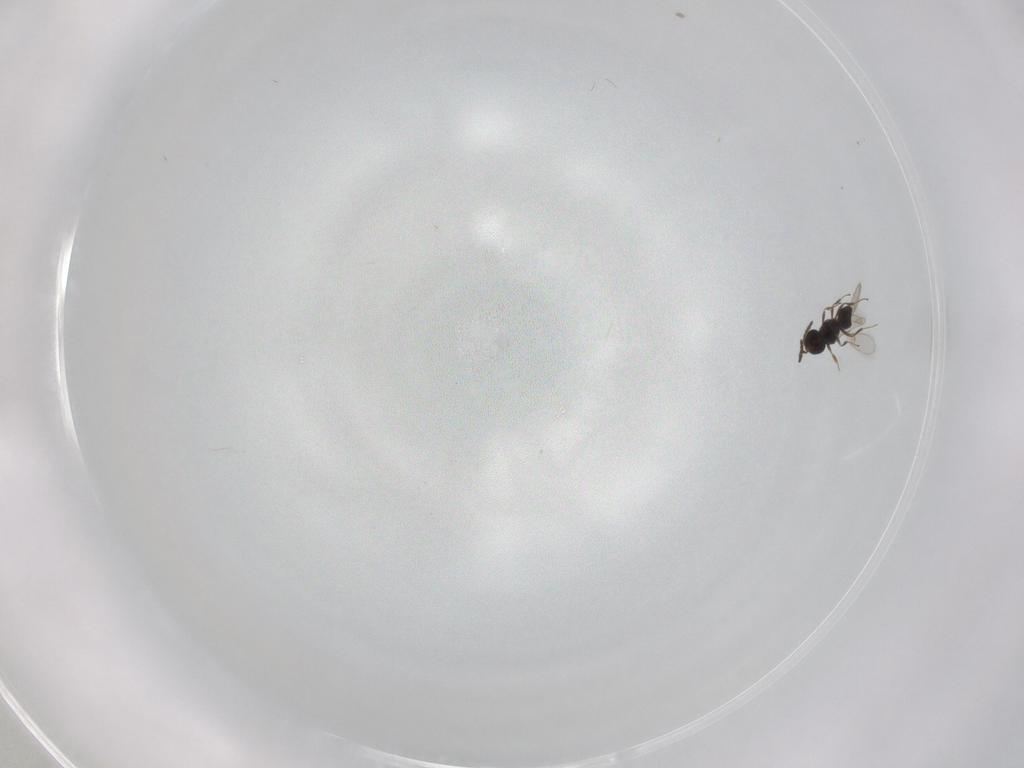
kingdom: Animalia
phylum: Arthropoda
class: Insecta
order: Hymenoptera
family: Scelionidae
